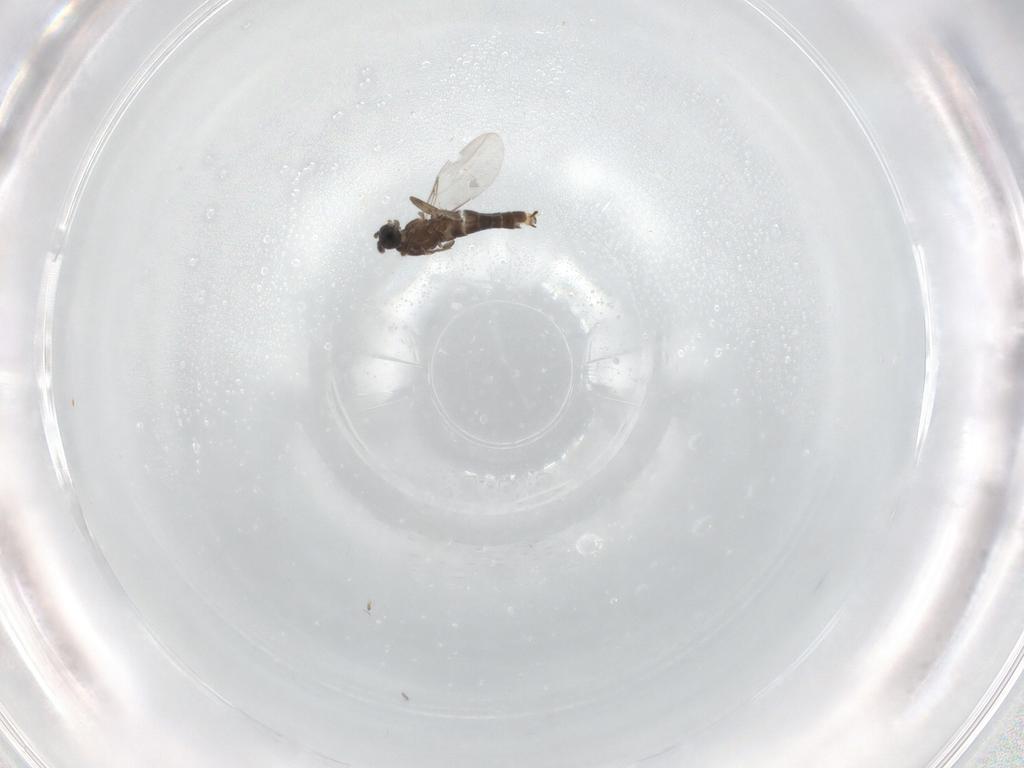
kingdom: Animalia
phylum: Arthropoda
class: Insecta
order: Diptera
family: Scatopsidae
